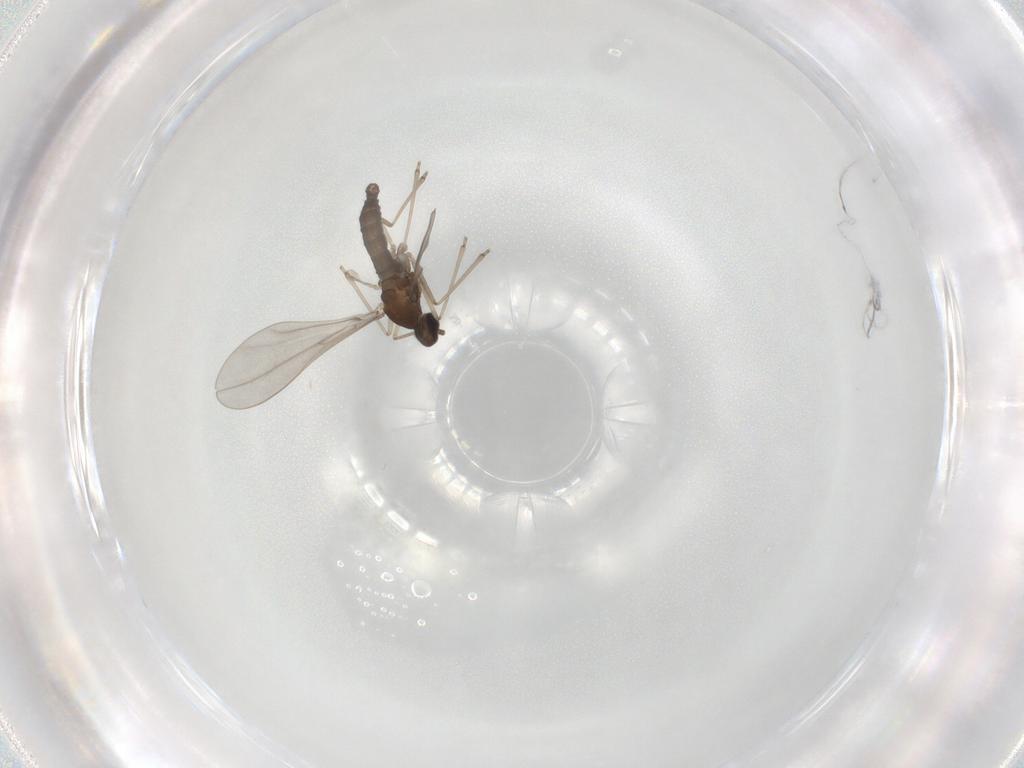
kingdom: Animalia
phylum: Arthropoda
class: Insecta
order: Diptera
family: Cecidomyiidae
